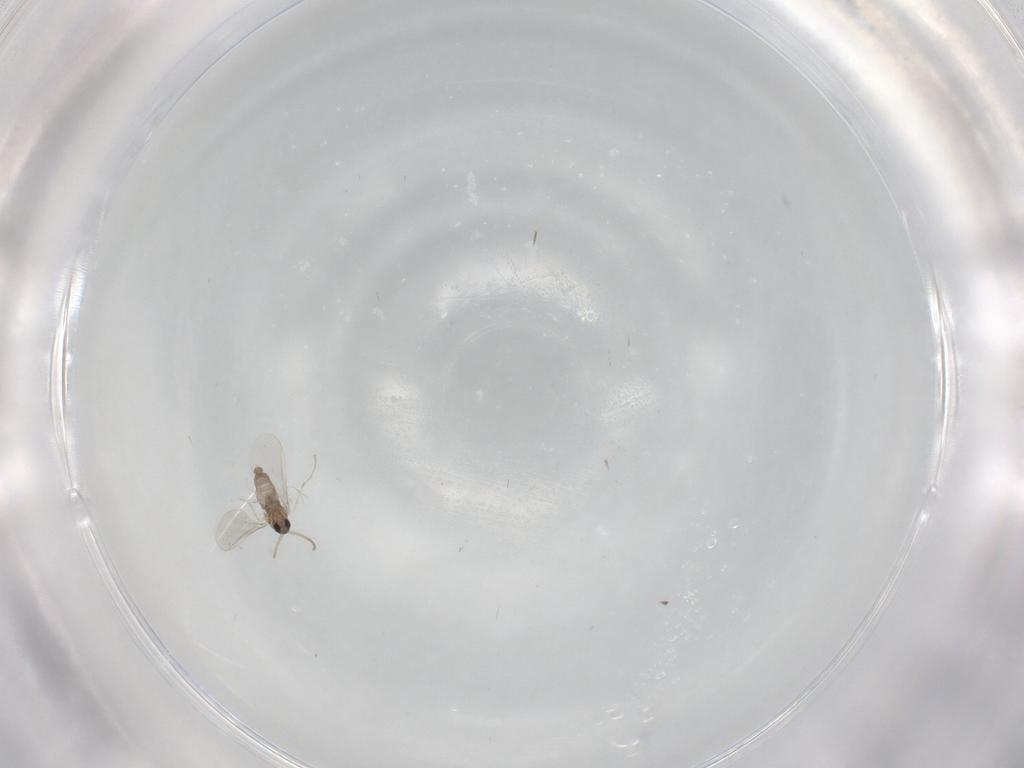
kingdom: Animalia
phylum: Arthropoda
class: Insecta
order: Diptera
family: Cecidomyiidae
